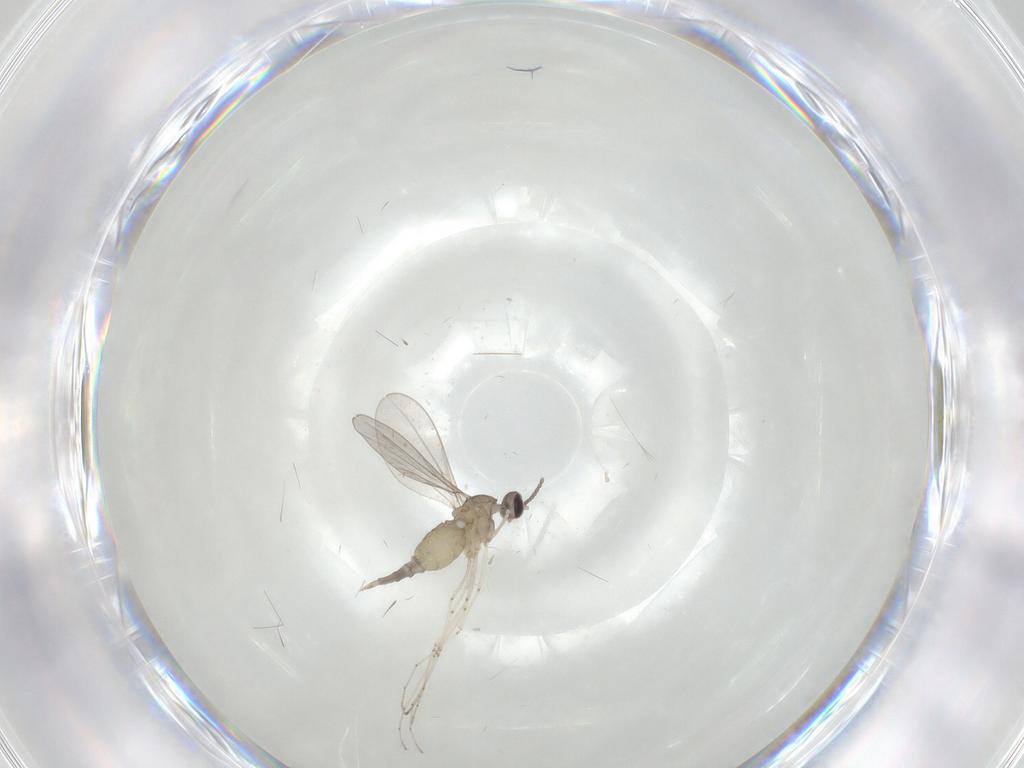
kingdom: Animalia
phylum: Arthropoda
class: Insecta
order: Diptera
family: Cecidomyiidae
